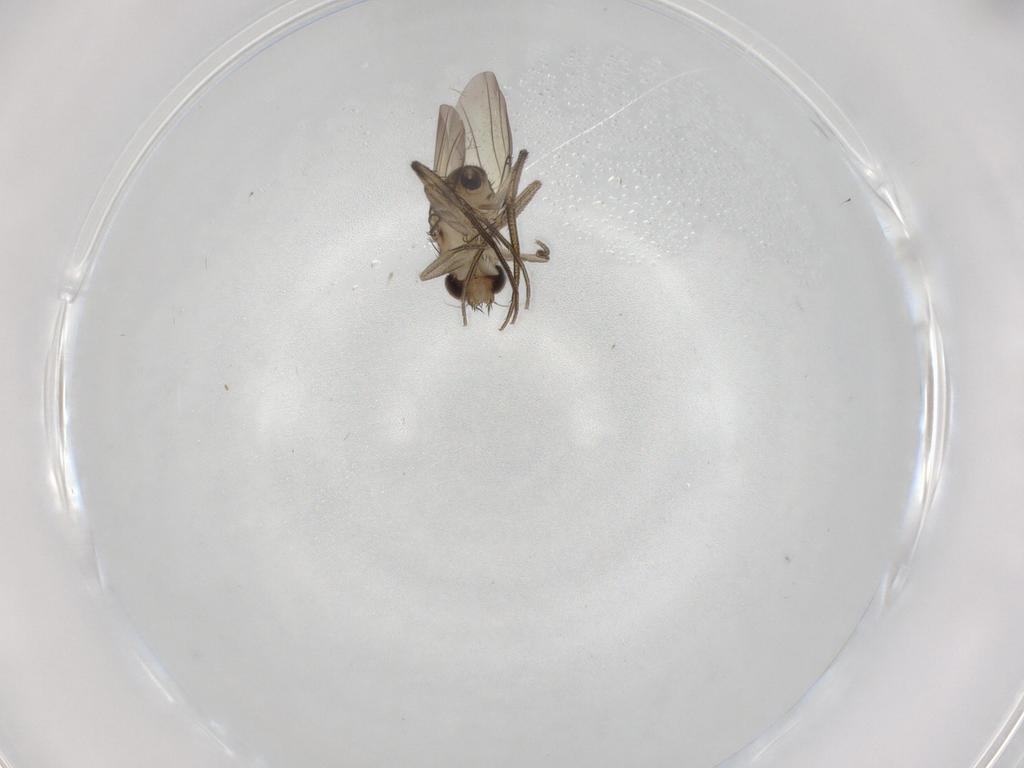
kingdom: Animalia
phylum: Arthropoda
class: Insecta
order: Diptera
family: Phoridae
